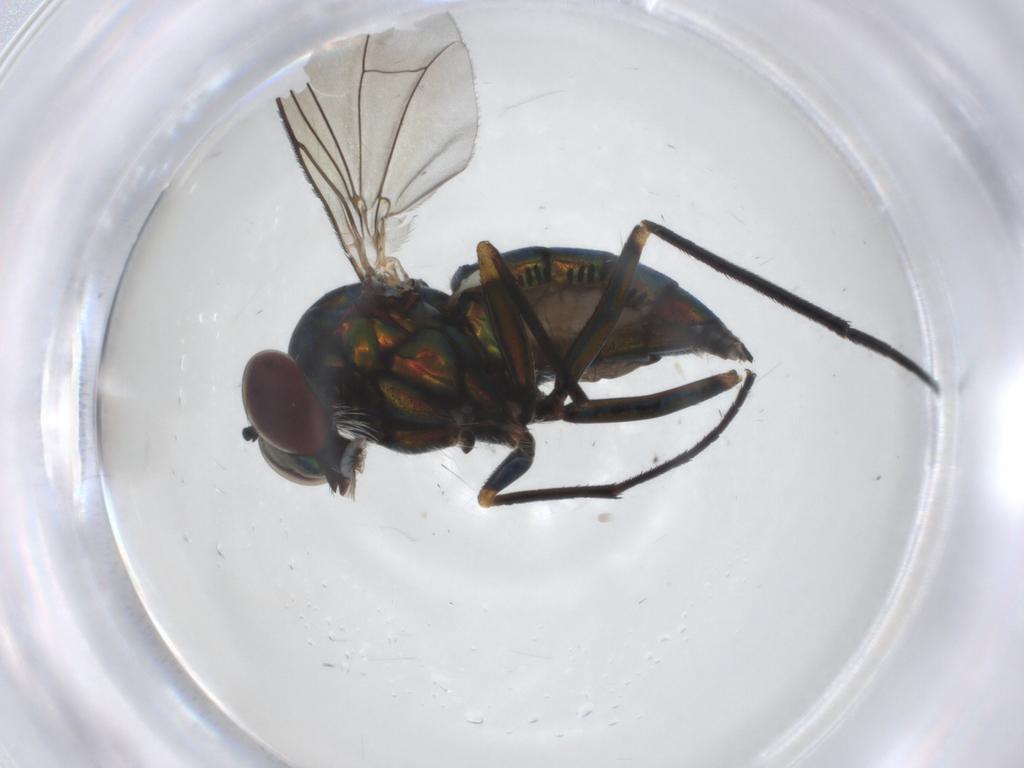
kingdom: Animalia
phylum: Arthropoda
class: Insecta
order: Diptera
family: Dolichopodidae
